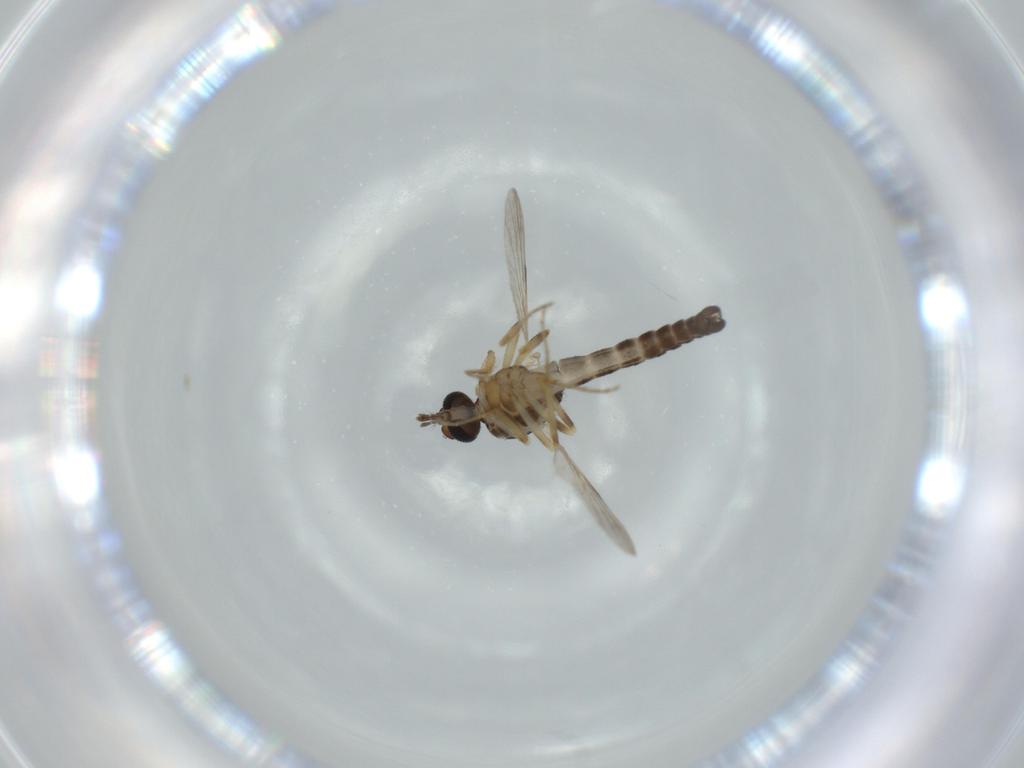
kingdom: Animalia
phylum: Arthropoda
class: Insecta
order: Diptera
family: Ceratopogonidae
